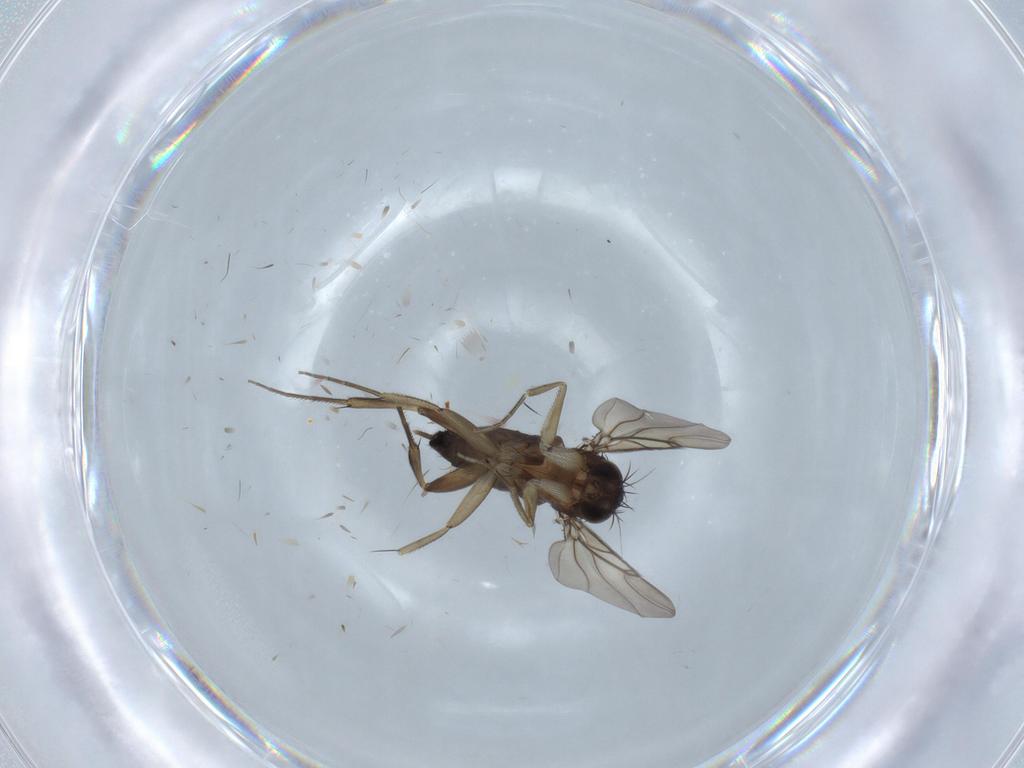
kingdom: Animalia
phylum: Arthropoda
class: Insecta
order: Diptera
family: Phoridae
